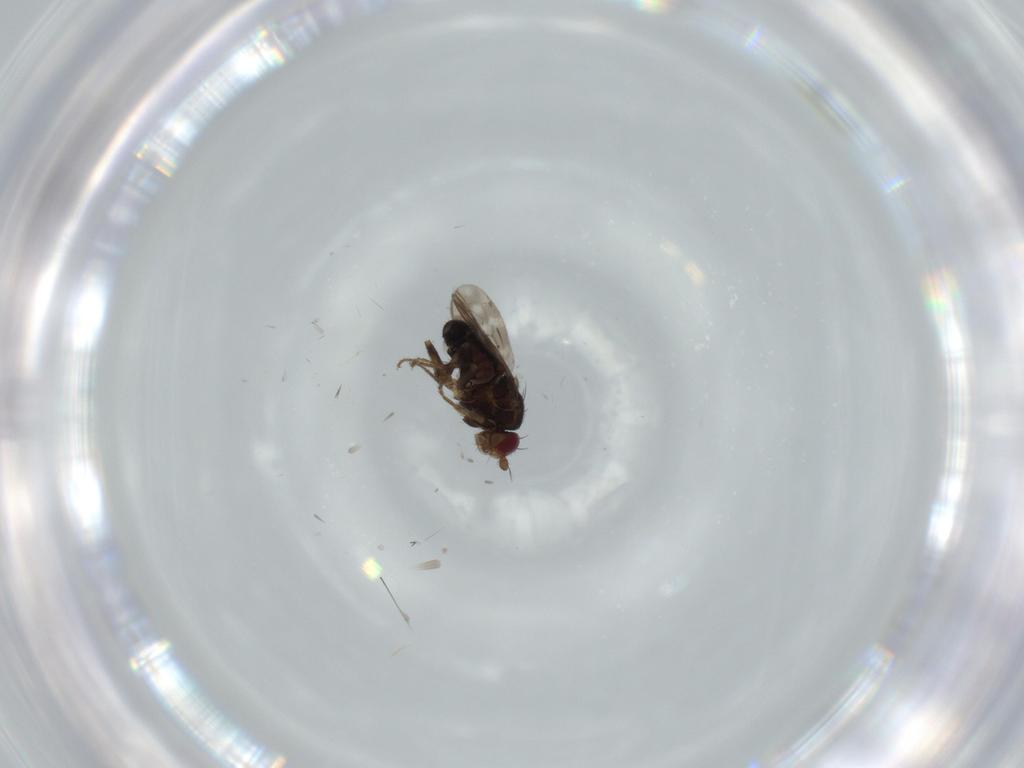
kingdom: Animalia
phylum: Arthropoda
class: Insecta
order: Diptera
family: Sphaeroceridae
